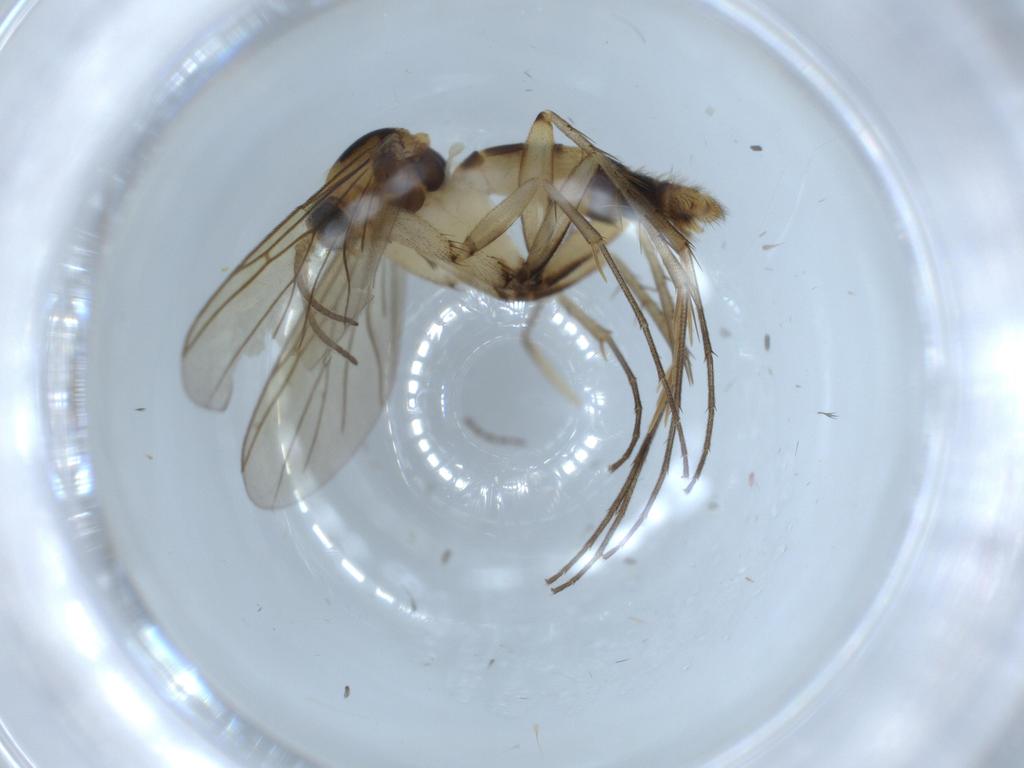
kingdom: Animalia
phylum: Arthropoda
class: Insecta
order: Diptera
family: Mycetophilidae
